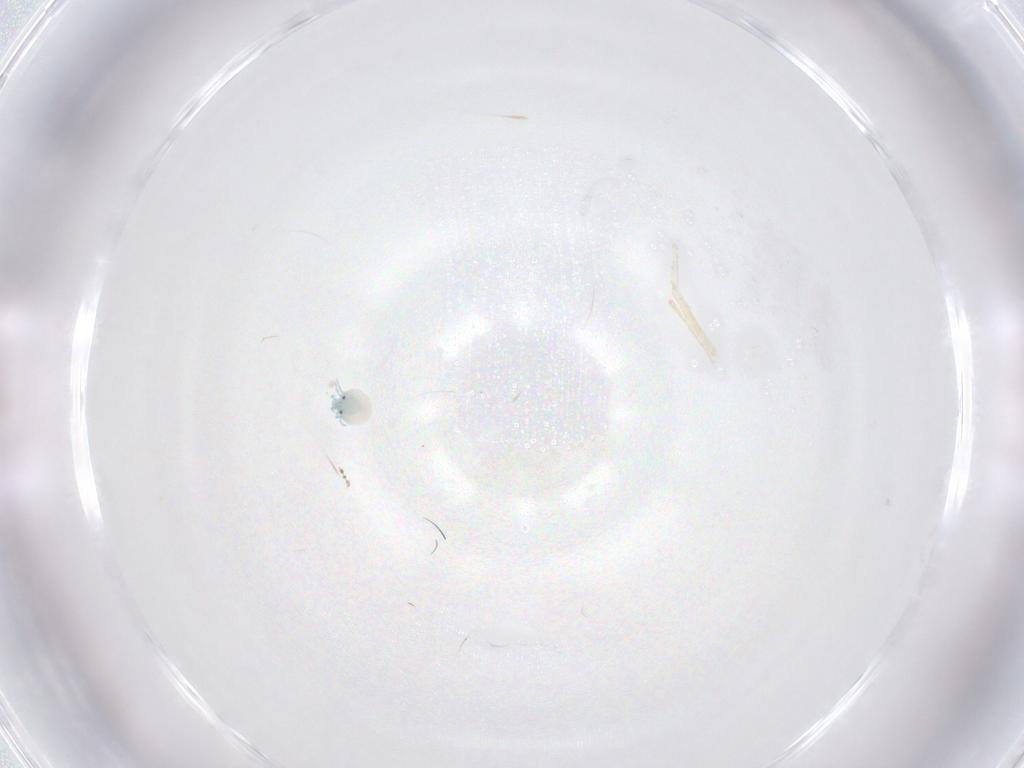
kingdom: Animalia
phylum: Arthropoda
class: Arachnida
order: Trombidiformes
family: Arrenuridae
